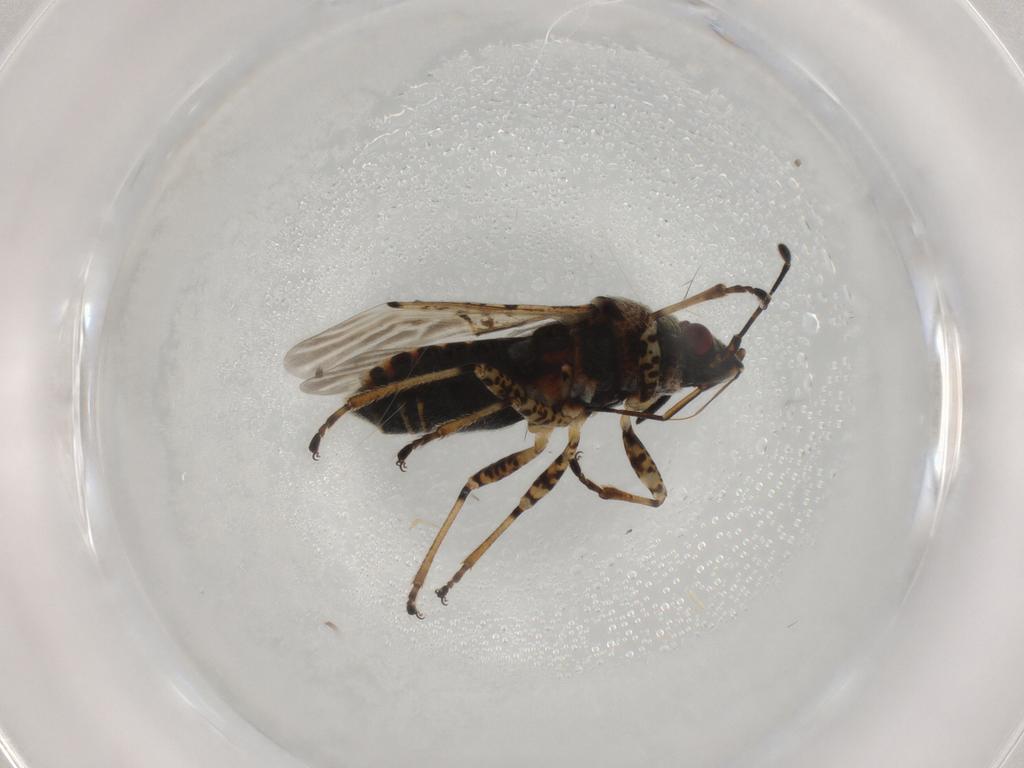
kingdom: Animalia
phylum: Arthropoda
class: Insecta
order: Hemiptera
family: Lygaeidae
